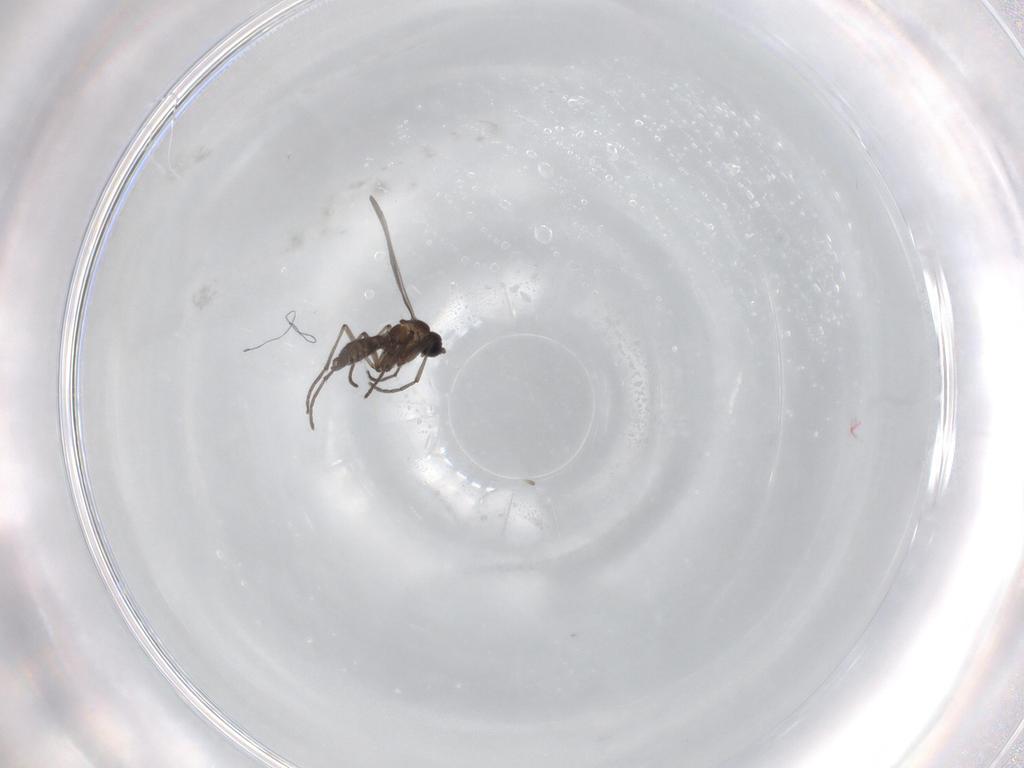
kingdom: Animalia
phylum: Arthropoda
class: Insecta
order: Diptera
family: Sciaridae
